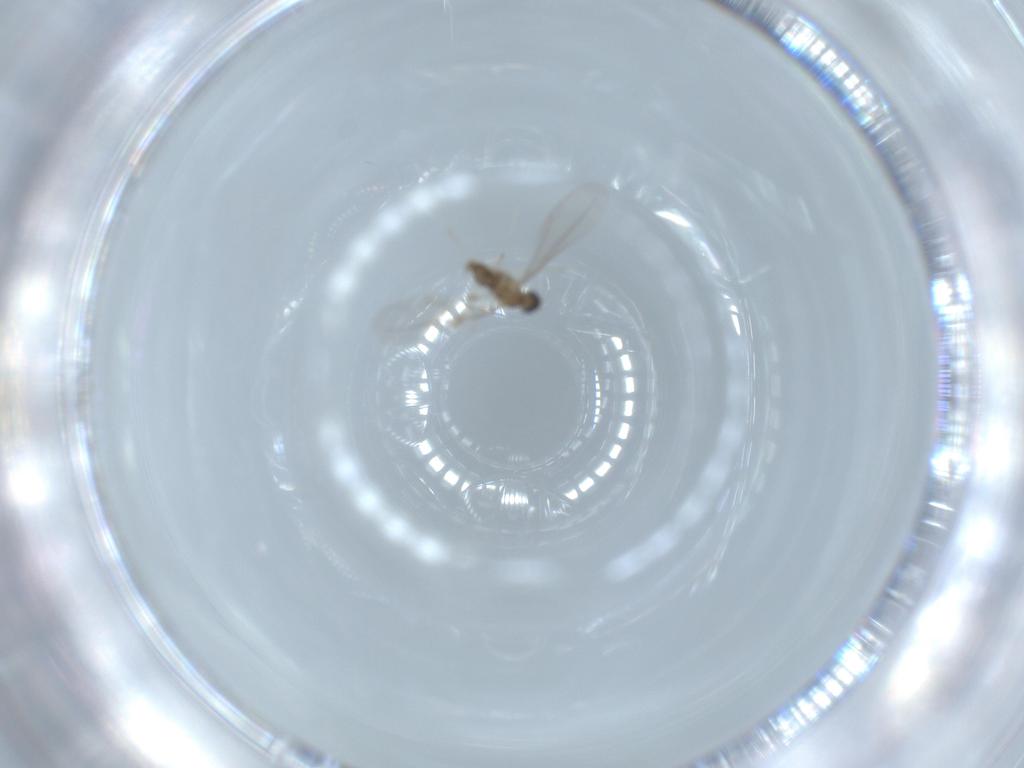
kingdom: Animalia
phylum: Arthropoda
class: Insecta
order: Diptera
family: Cecidomyiidae
